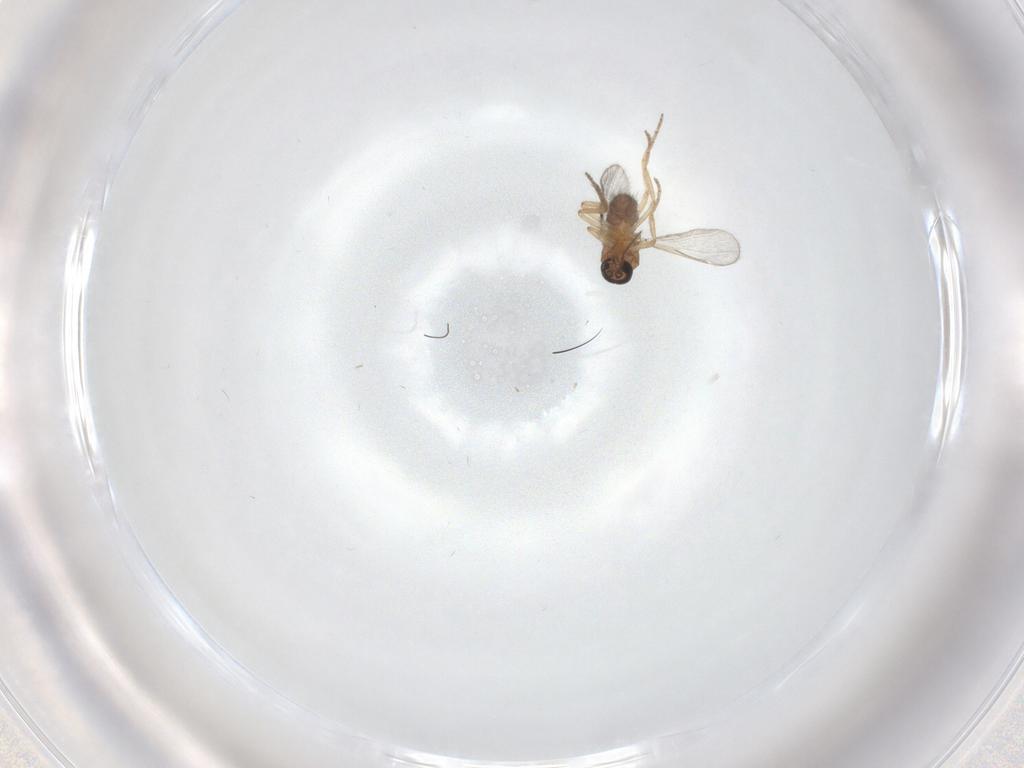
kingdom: Animalia
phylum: Arthropoda
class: Insecta
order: Diptera
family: Ceratopogonidae
